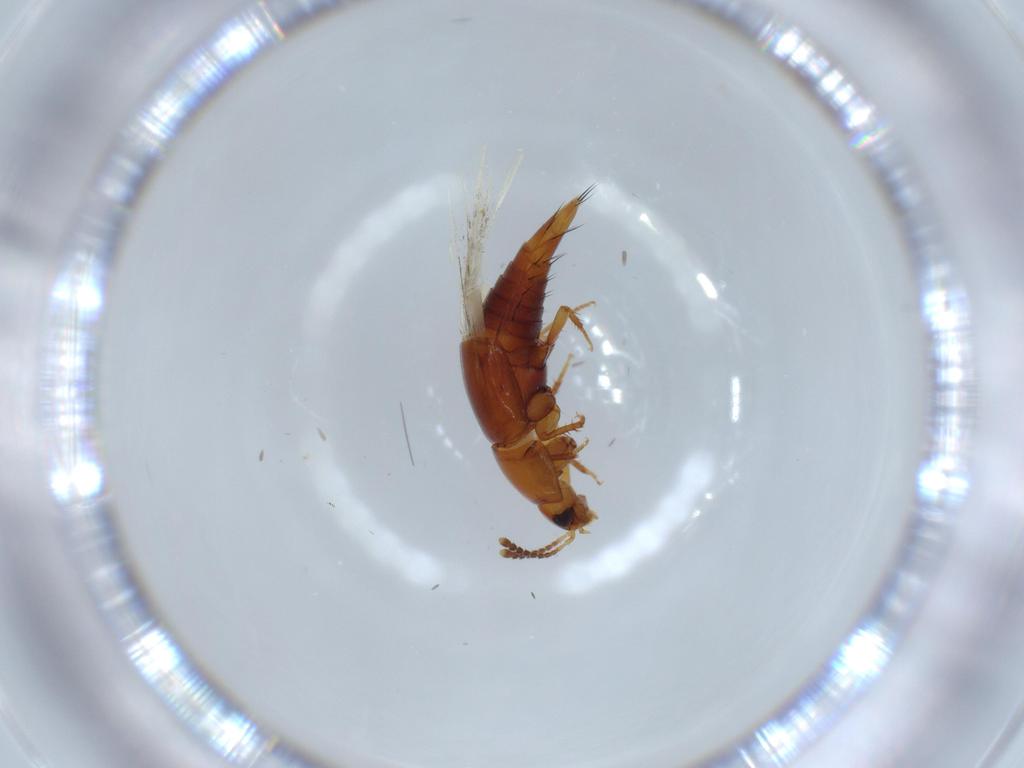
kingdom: Animalia
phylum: Arthropoda
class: Insecta
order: Coleoptera
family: Staphylinidae
